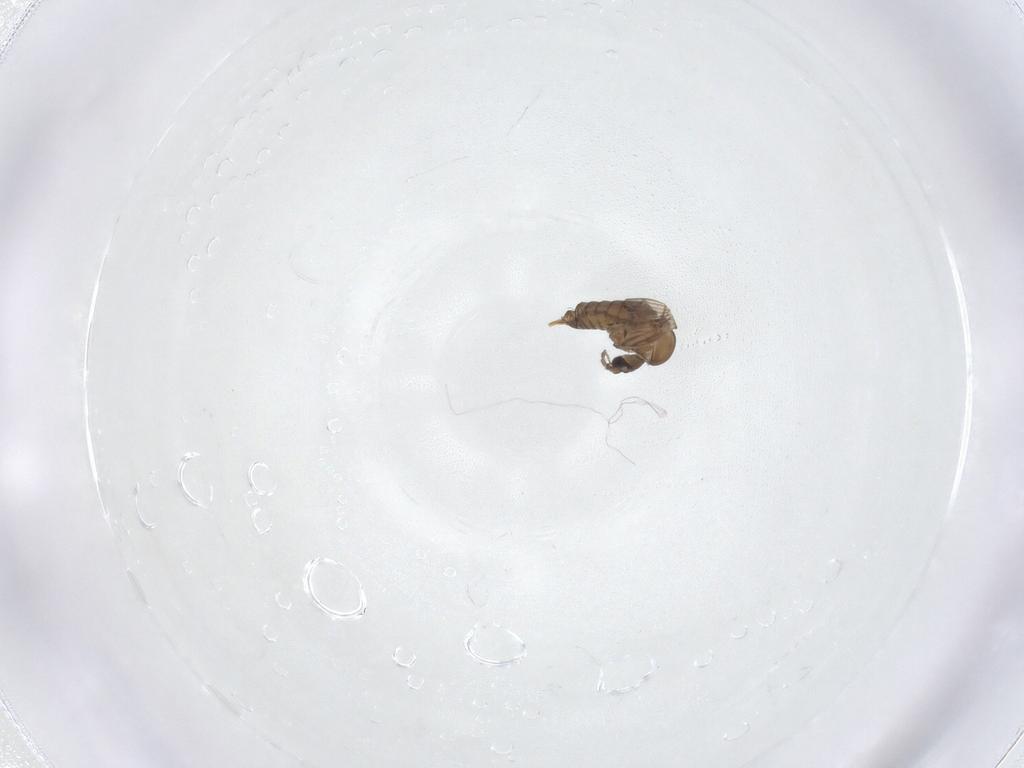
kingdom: Animalia
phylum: Arthropoda
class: Insecta
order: Diptera
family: Psychodidae
